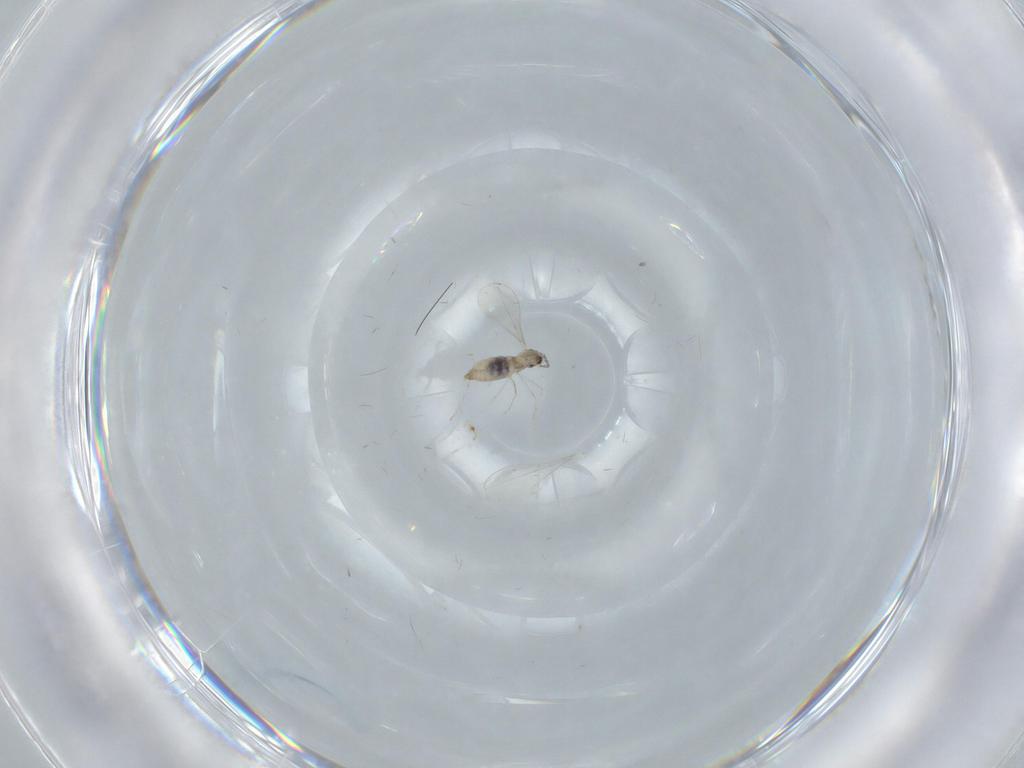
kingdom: Animalia
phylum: Arthropoda
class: Insecta
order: Diptera
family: Cecidomyiidae
